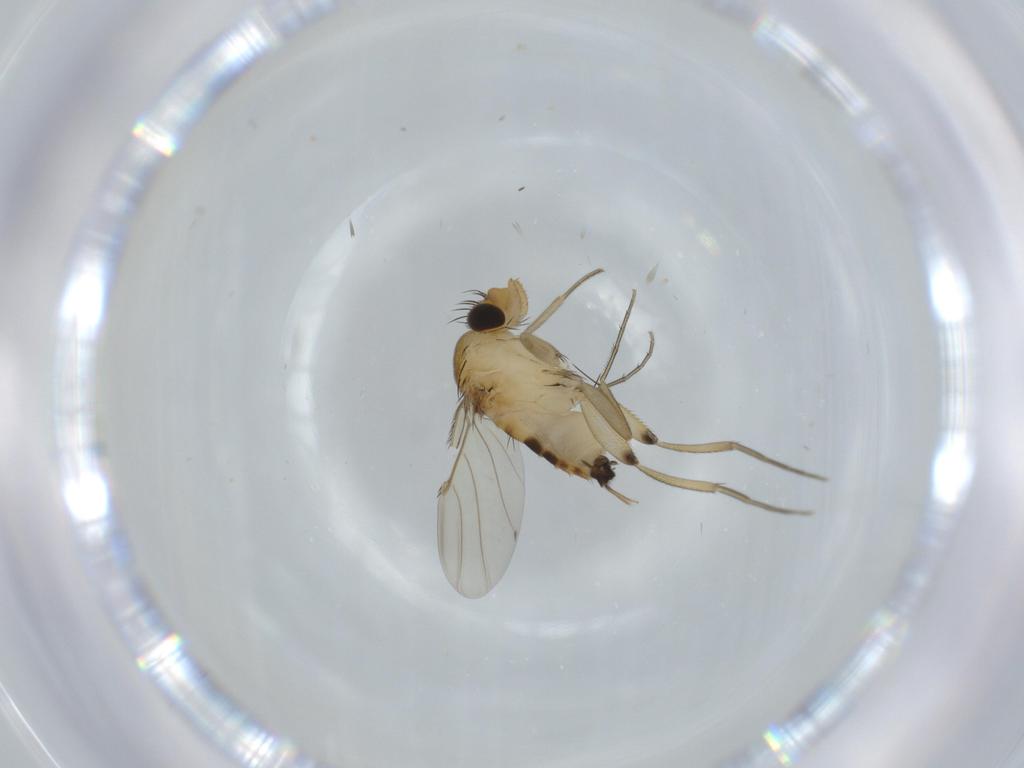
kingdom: Animalia
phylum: Arthropoda
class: Insecta
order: Diptera
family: Phoridae
